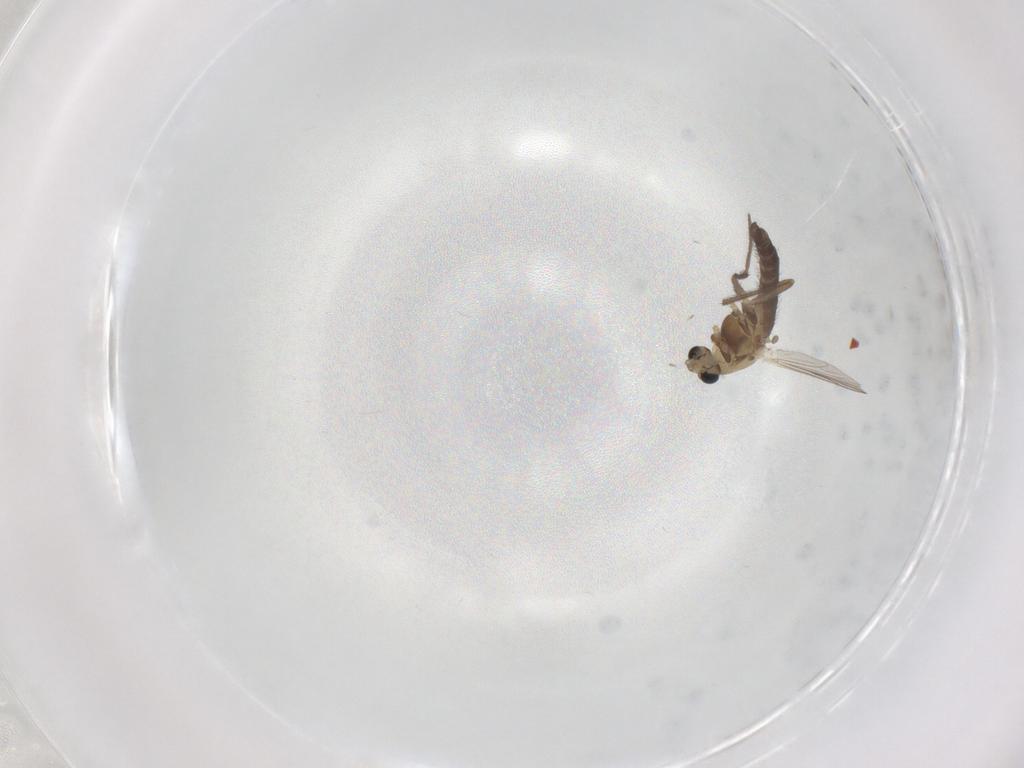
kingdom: Animalia
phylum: Arthropoda
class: Insecta
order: Diptera
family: Chironomidae
